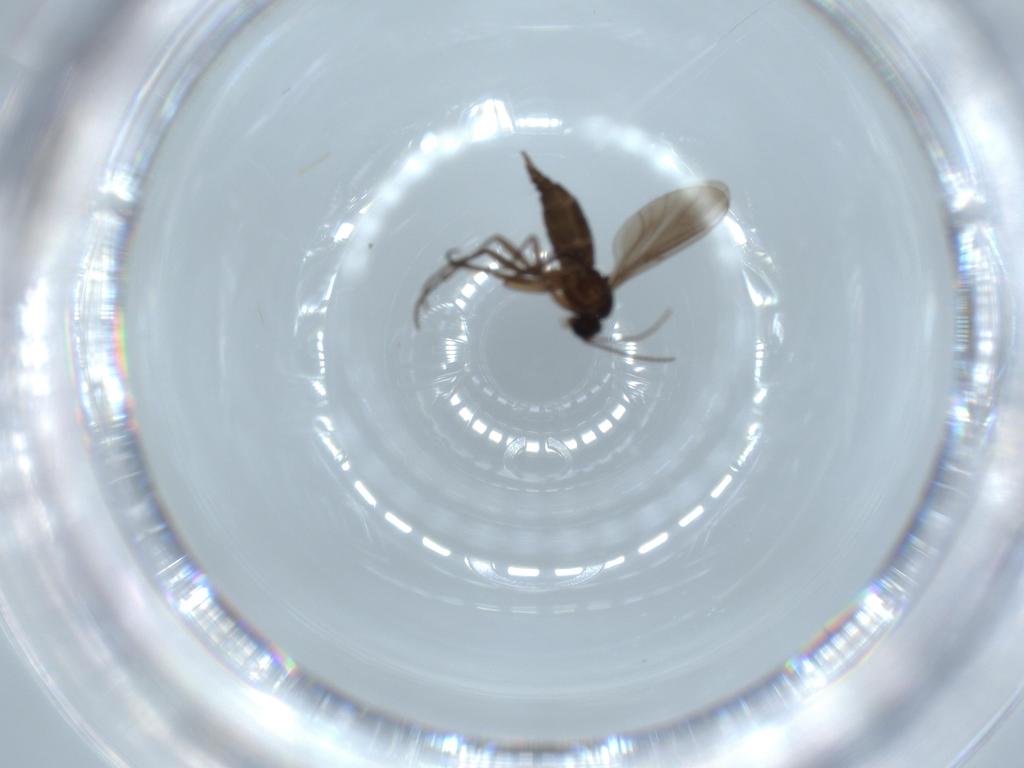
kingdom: Animalia
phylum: Arthropoda
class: Insecta
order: Diptera
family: Sciaridae
